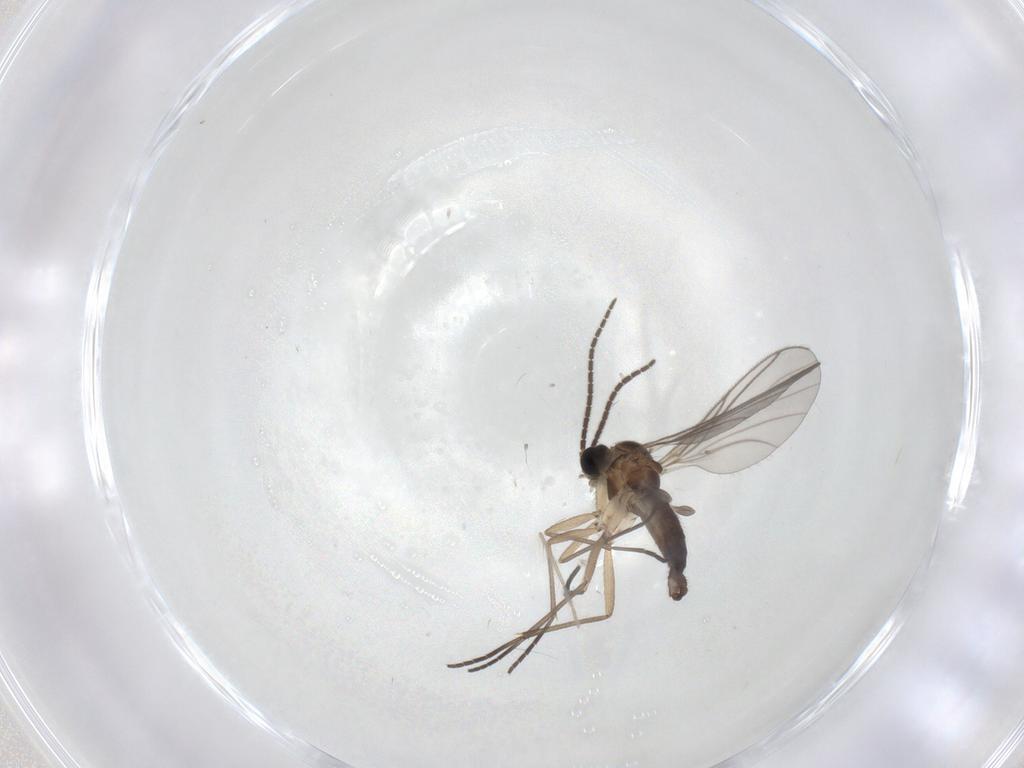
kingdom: Animalia
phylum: Arthropoda
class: Insecta
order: Diptera
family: Sciaridae
